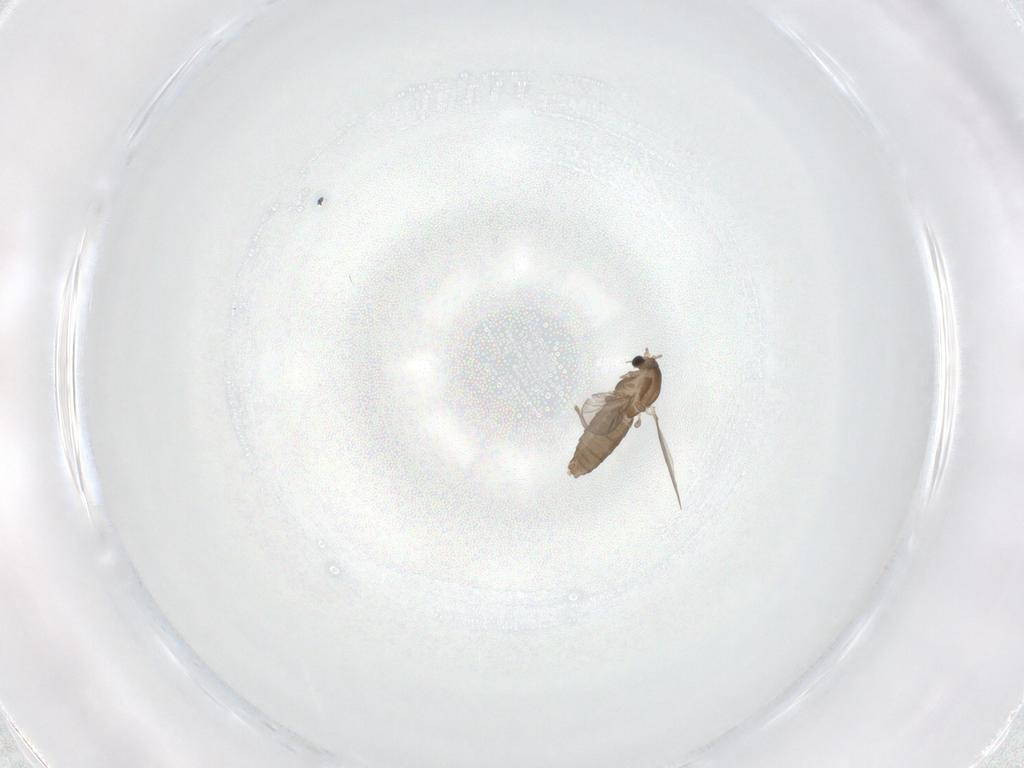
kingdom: Animalia
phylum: Arthropoda
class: Insecta
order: Diptera
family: Chironomidae
